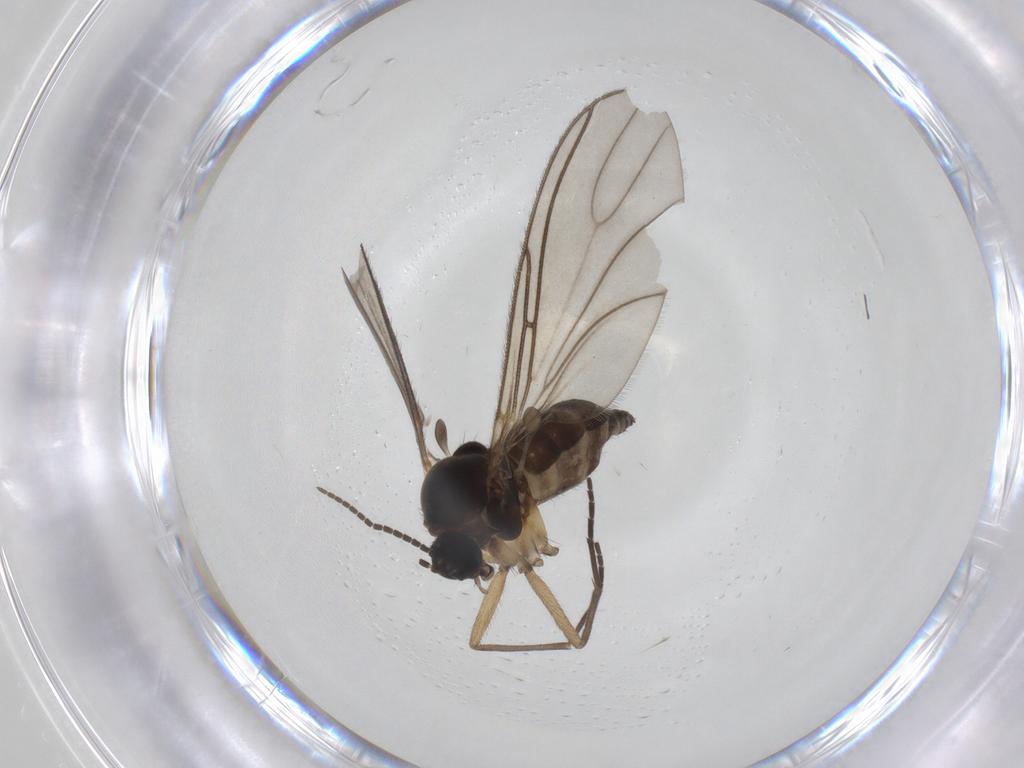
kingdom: Animalia
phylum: Arthropoda
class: Insecta
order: Diptera
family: Sciaridae
